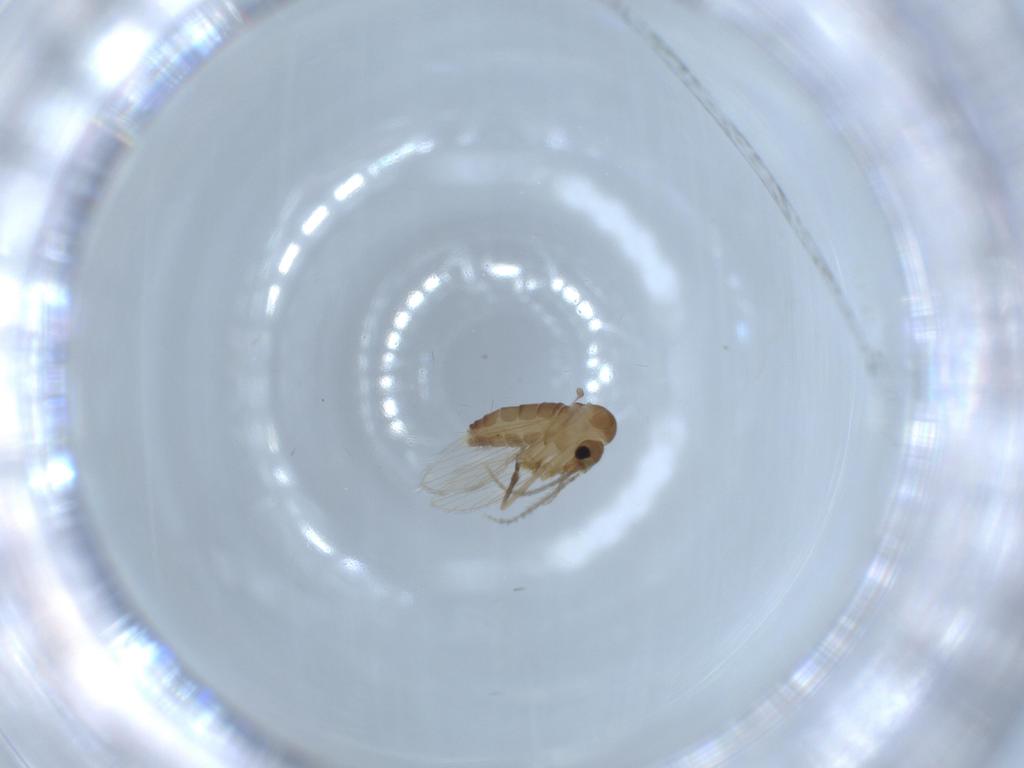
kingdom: Animalia
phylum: Arthropoda
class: Insecta
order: Diptera
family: Psychodidae
